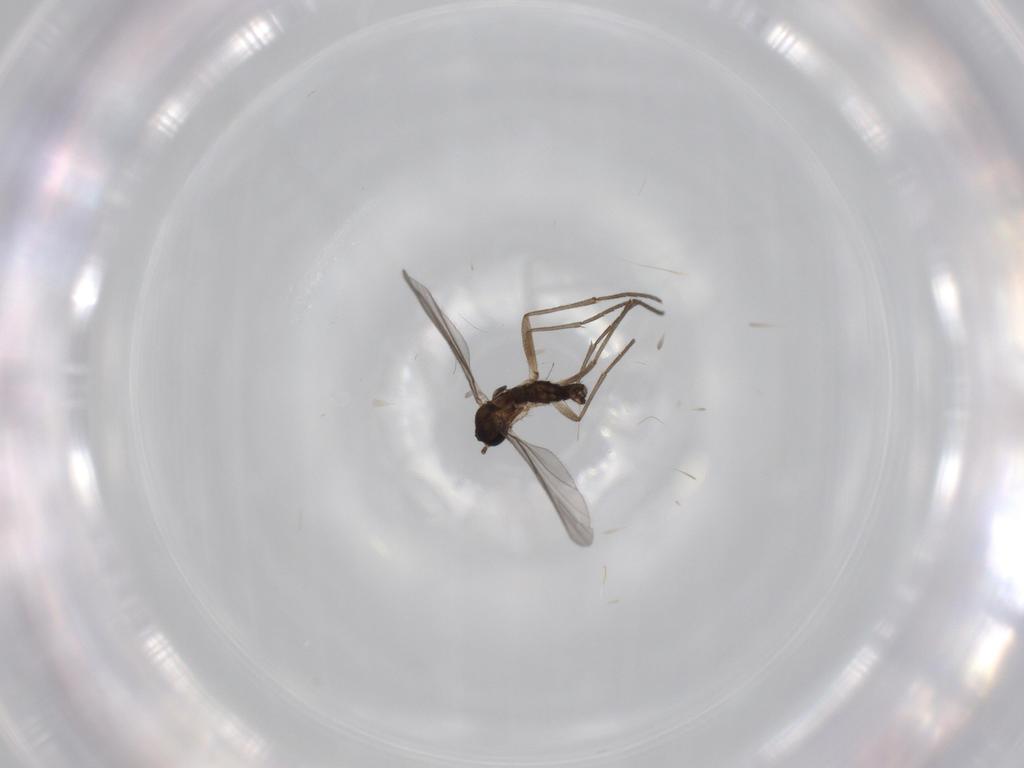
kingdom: Animalia
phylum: Arthropoda
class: Insecta
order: Diptera
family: Sciaridae
